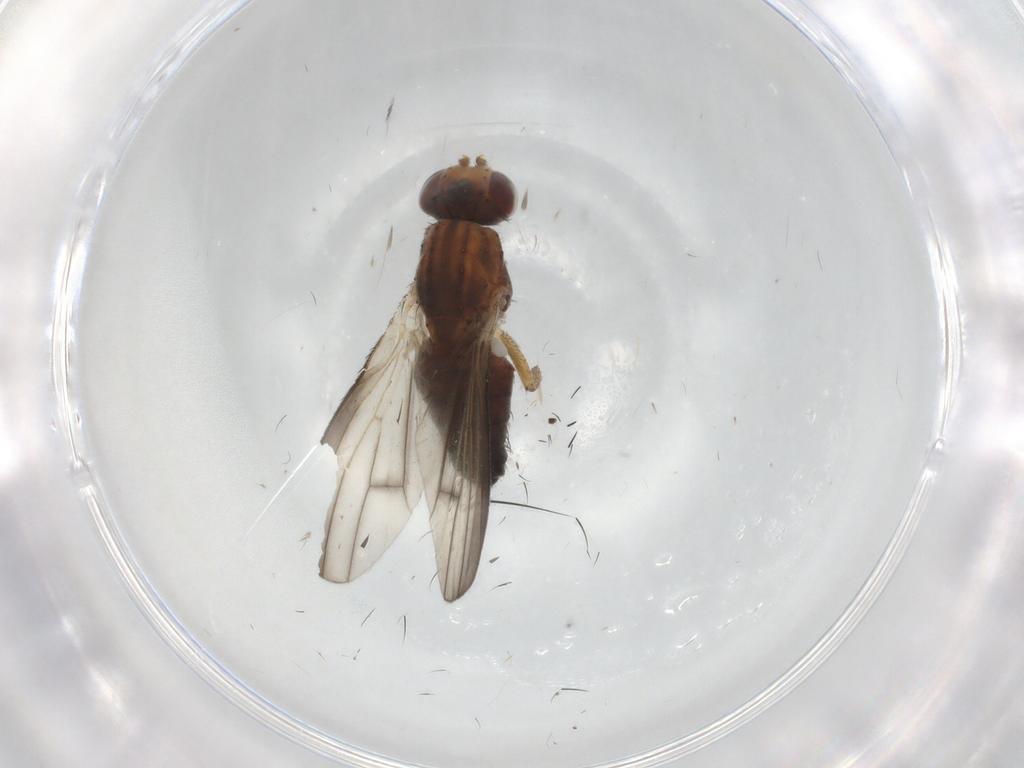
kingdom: Animalia
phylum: Arthropoda
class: Insecta
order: Diptera
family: Heleomyzidae
